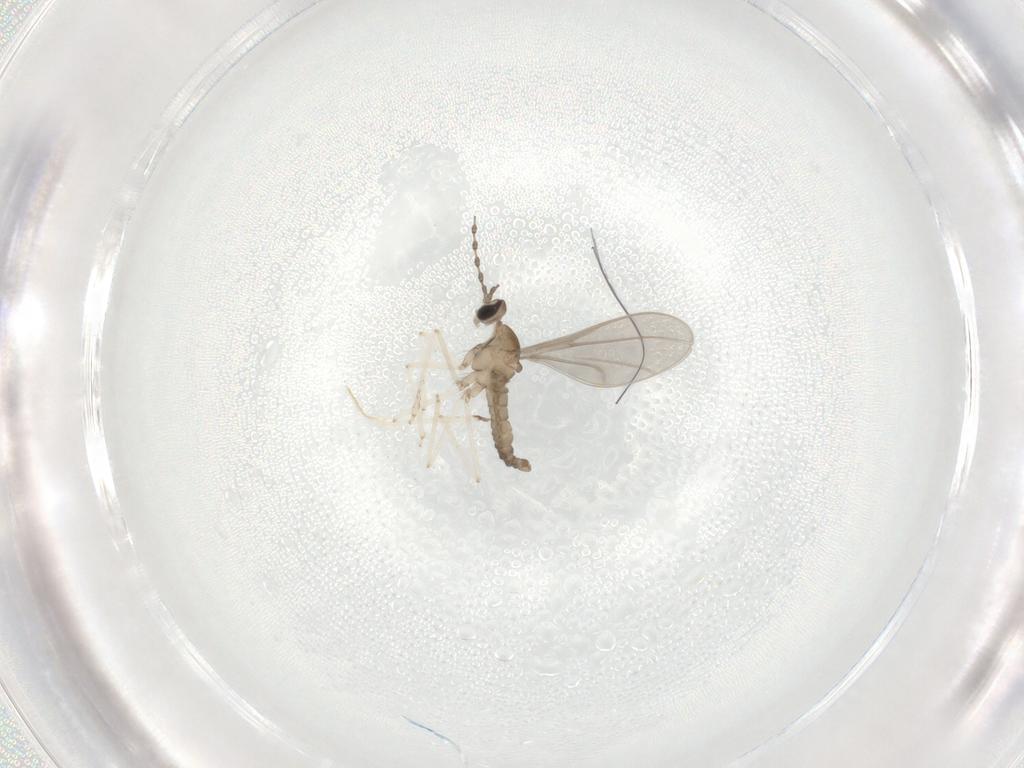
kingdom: Animalia
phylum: Arthropoda
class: Insecta
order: Diptera
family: Cecidomyiidae
